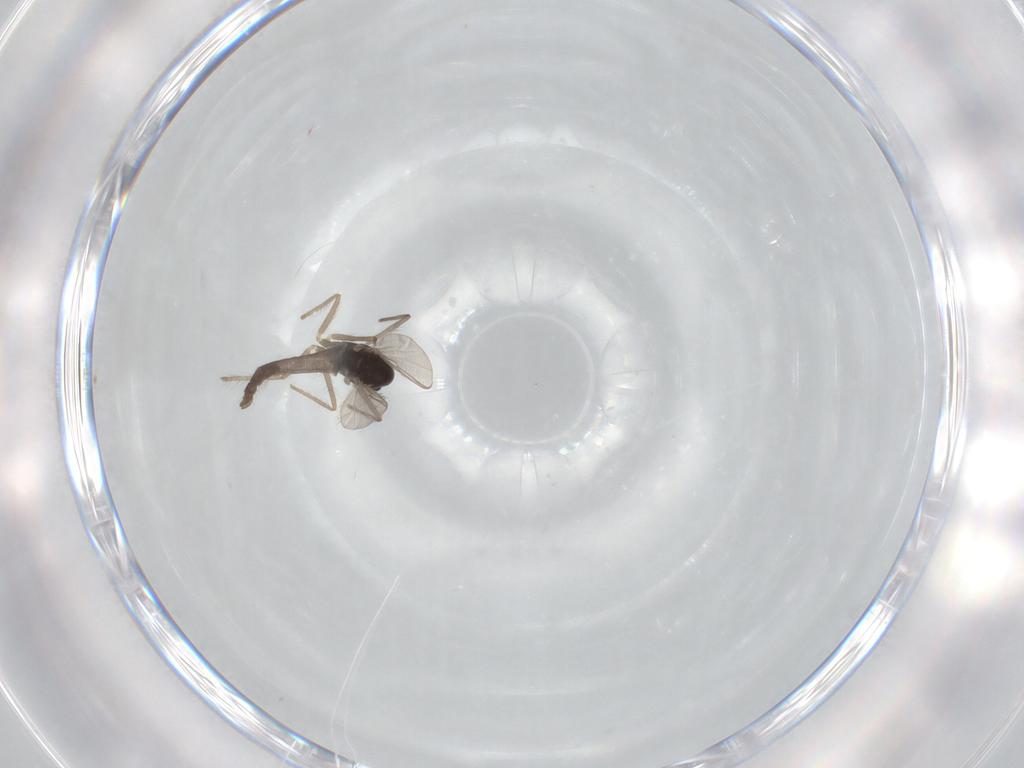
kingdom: Animalia
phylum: Arthropoda
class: Insecta
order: Diptera
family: Chironomidae
